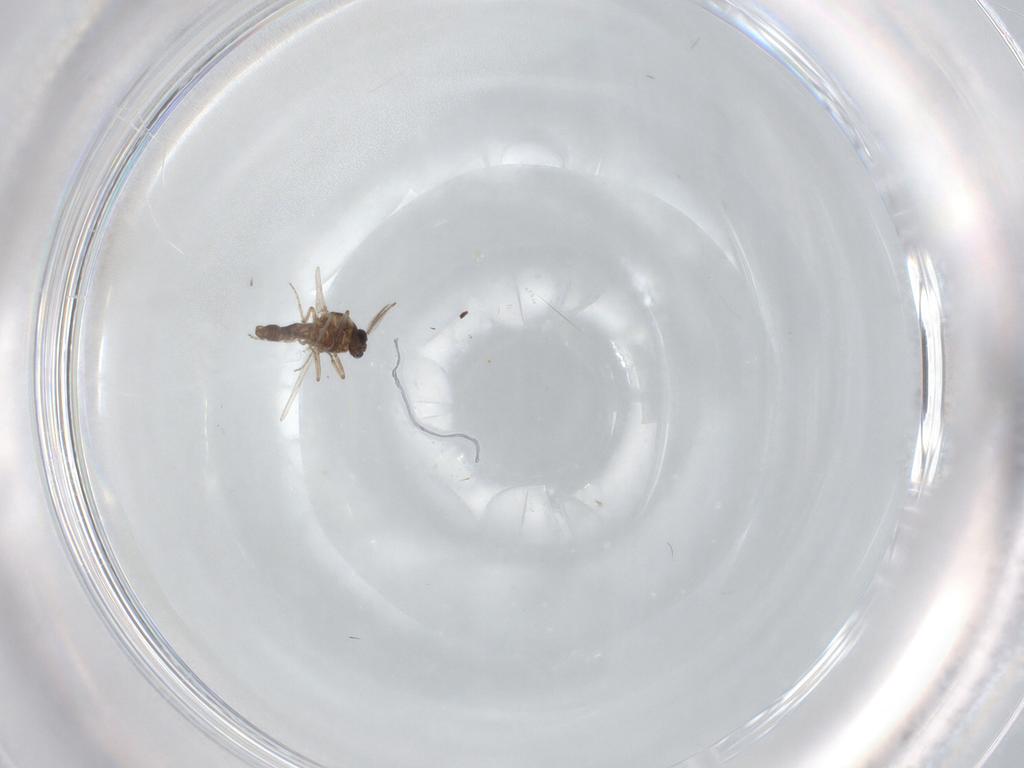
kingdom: Animalia
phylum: Arthropoda
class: Insecta
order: Diptera
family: Ceratopogonidae
